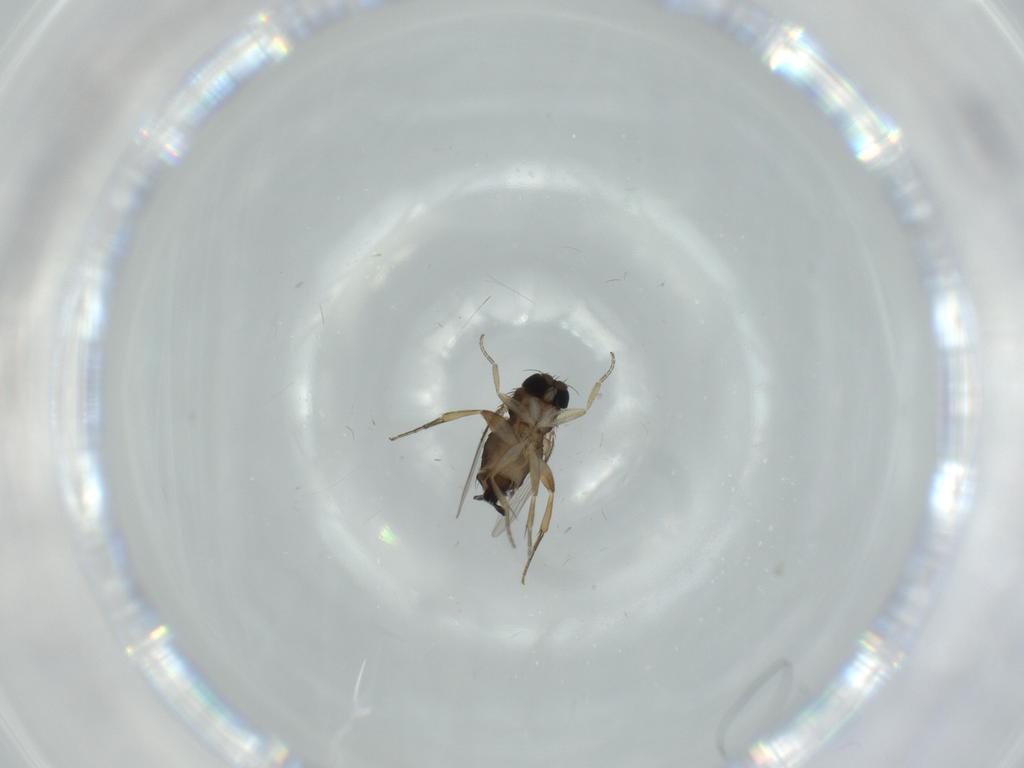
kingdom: Animalia
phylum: Arthropoda
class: Insecta
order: Diptera
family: Phoridae
